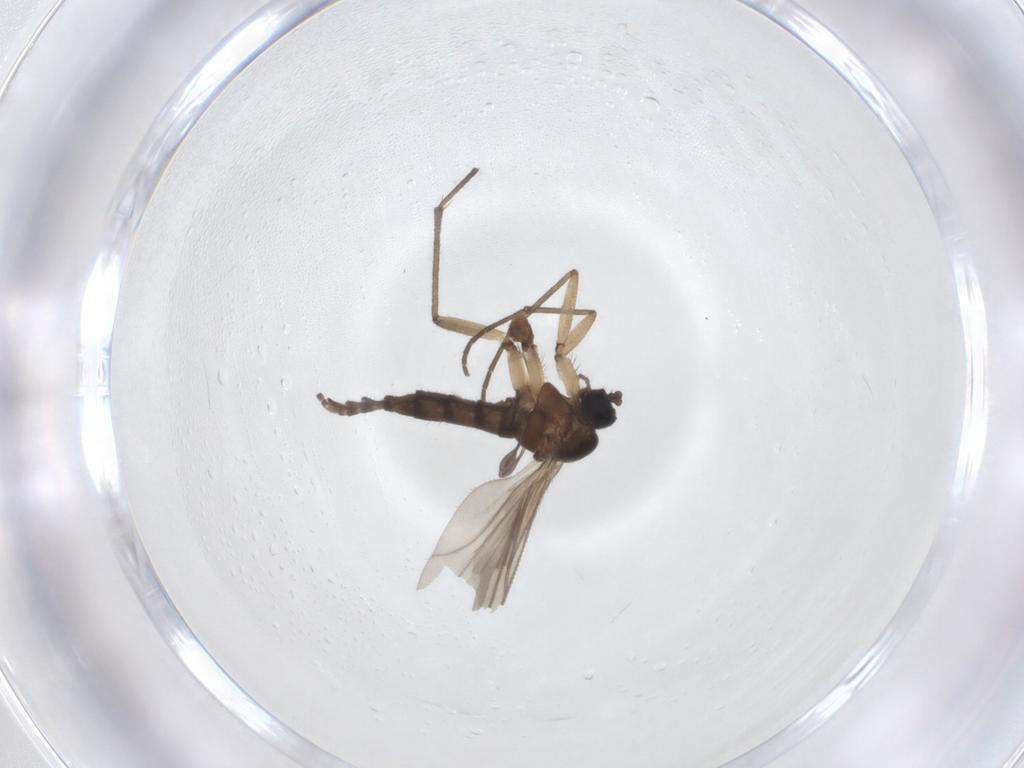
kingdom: Animalia
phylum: Arthropoda
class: Insecta
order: Diptera
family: Sciaridae
